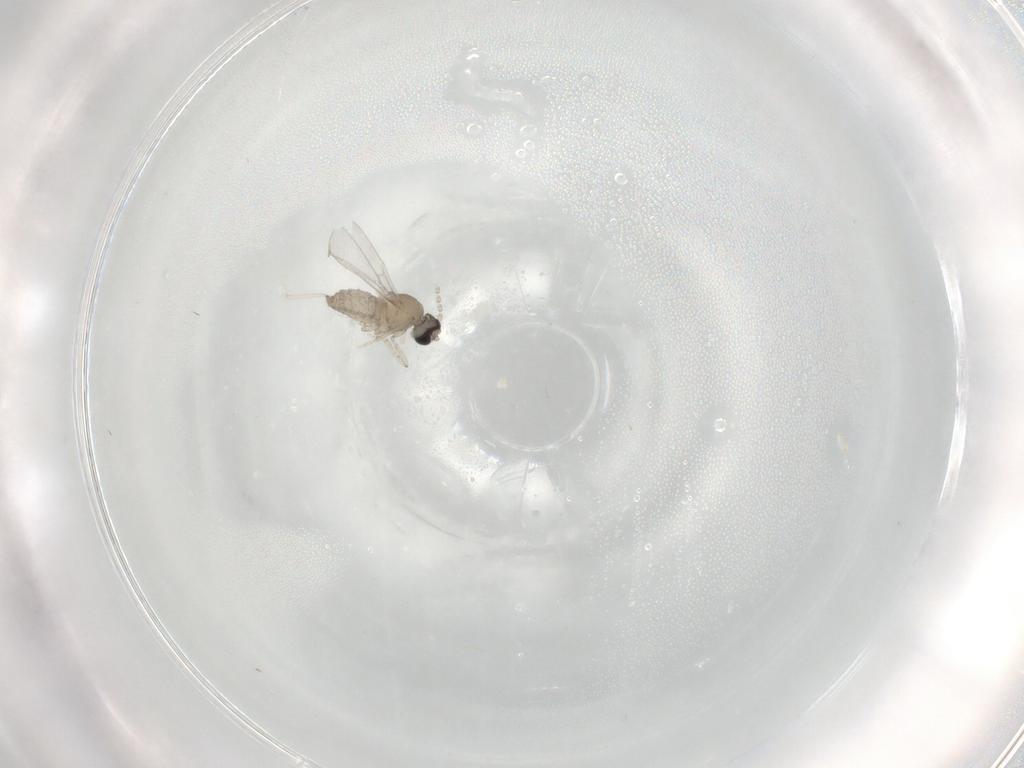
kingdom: Animalia
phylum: Arthropoda
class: Insecta
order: Diptera
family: Cecidomyiidae
